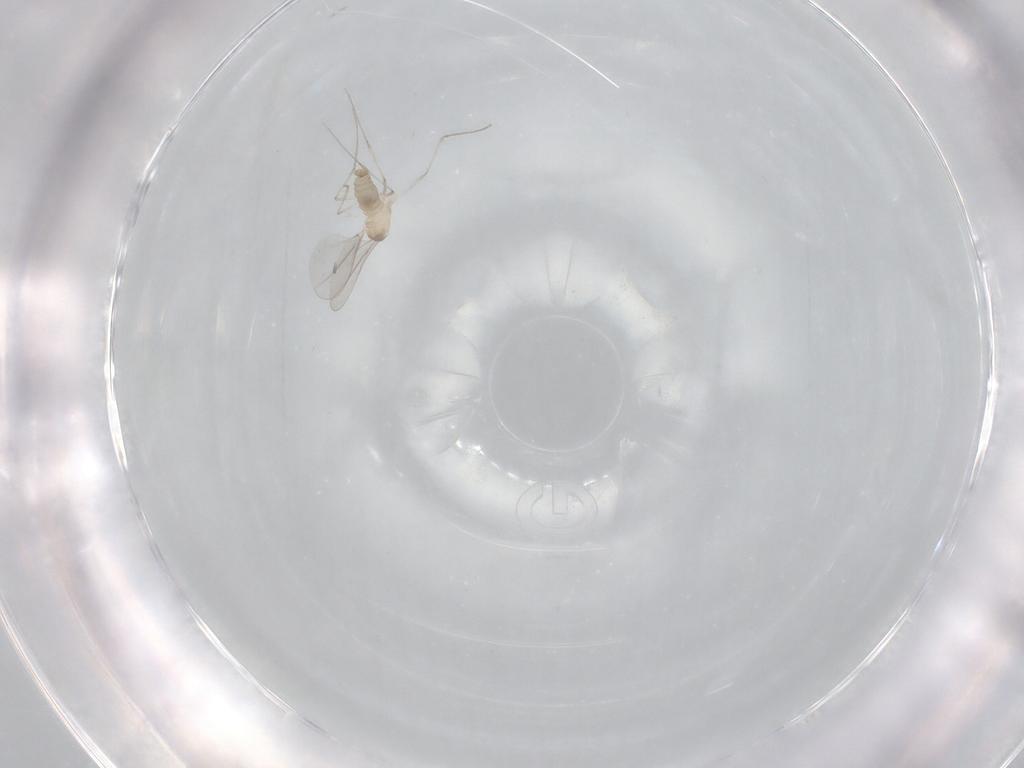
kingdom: Animalia
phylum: Arthropoda
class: Insecta
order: Diptera
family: Cecidomyiidae
